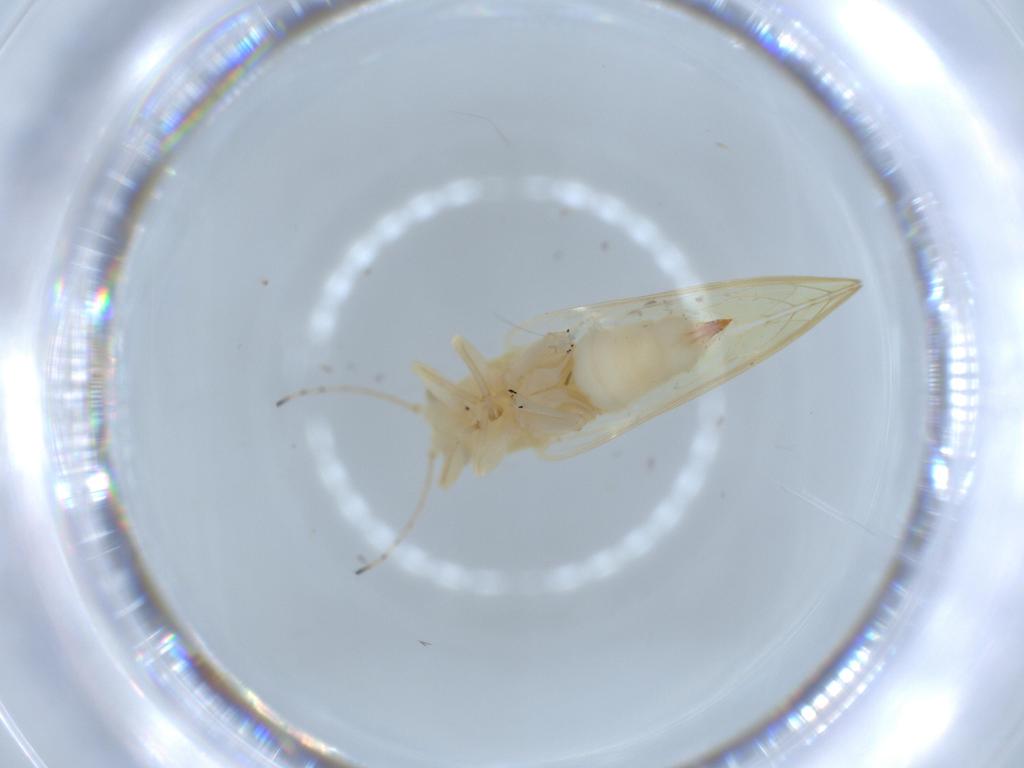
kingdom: Animalia
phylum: Arthropoda
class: Insecta
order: Hemiptera
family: Triozidae
